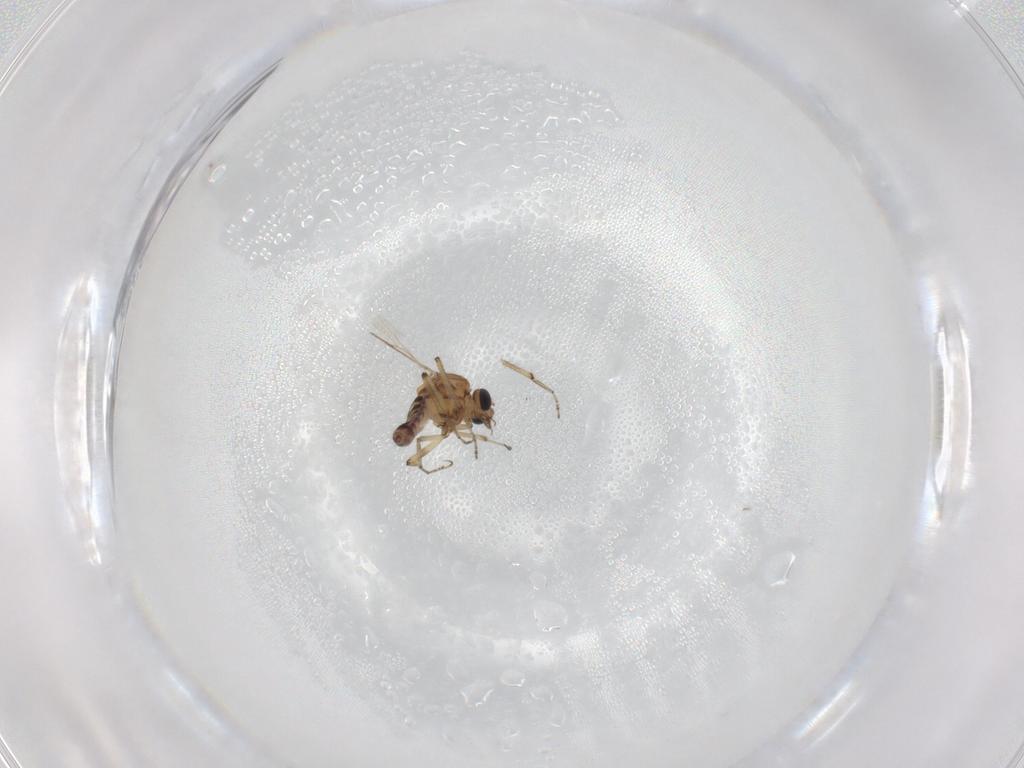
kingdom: Animalia
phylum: Arthropoda
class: Insecta
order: Diptera
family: Ceratopogonidae
